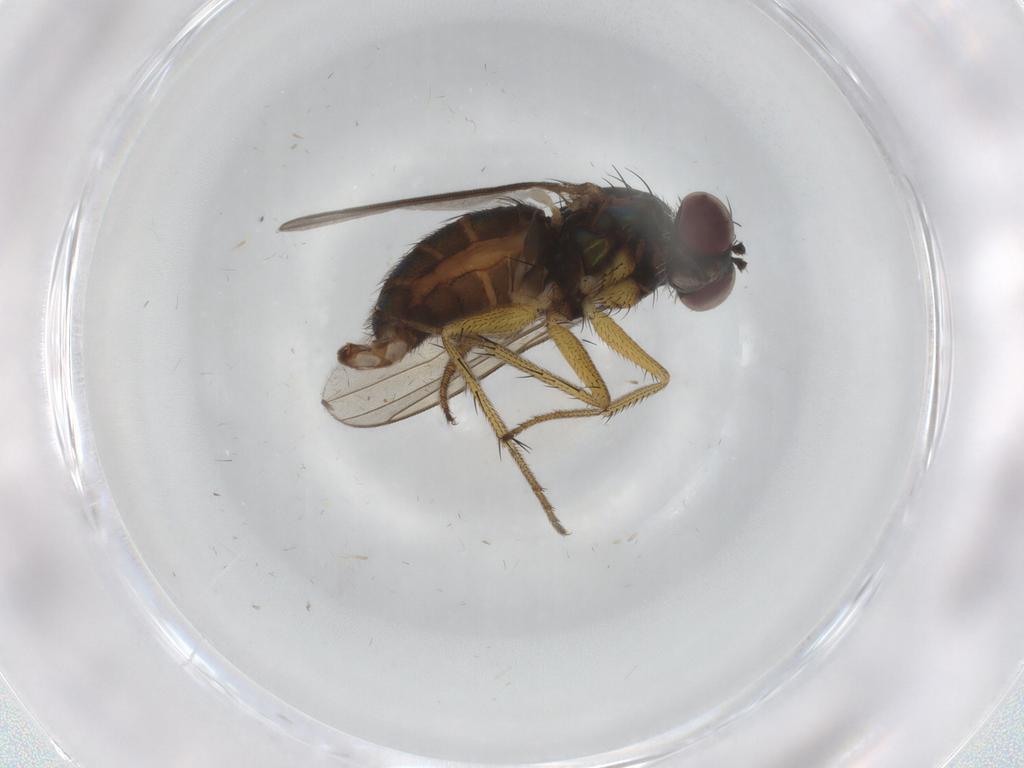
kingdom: Animalia
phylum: Arthropoda
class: Insecta
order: Diptera
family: Dolichopodidae
